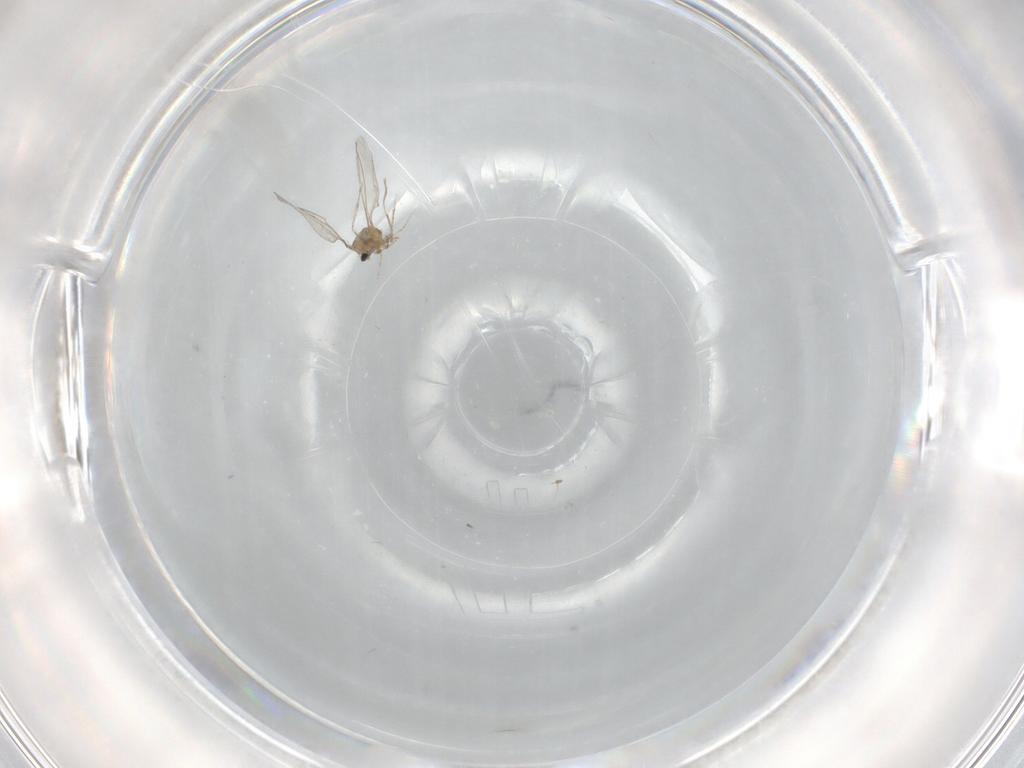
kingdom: Animalia
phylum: Arthropoda
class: Insecta
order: Diptera
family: Cecidomyiidae
